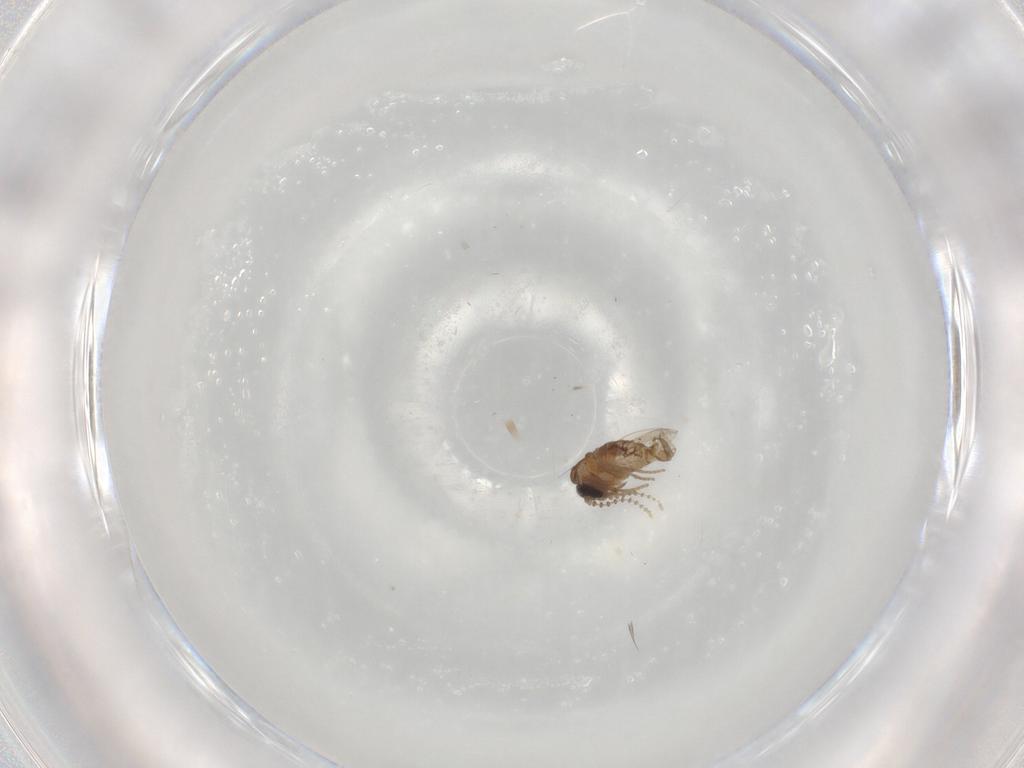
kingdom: Animalia
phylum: Arthropoda
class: Insecta
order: Diptera
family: Psychodidae
